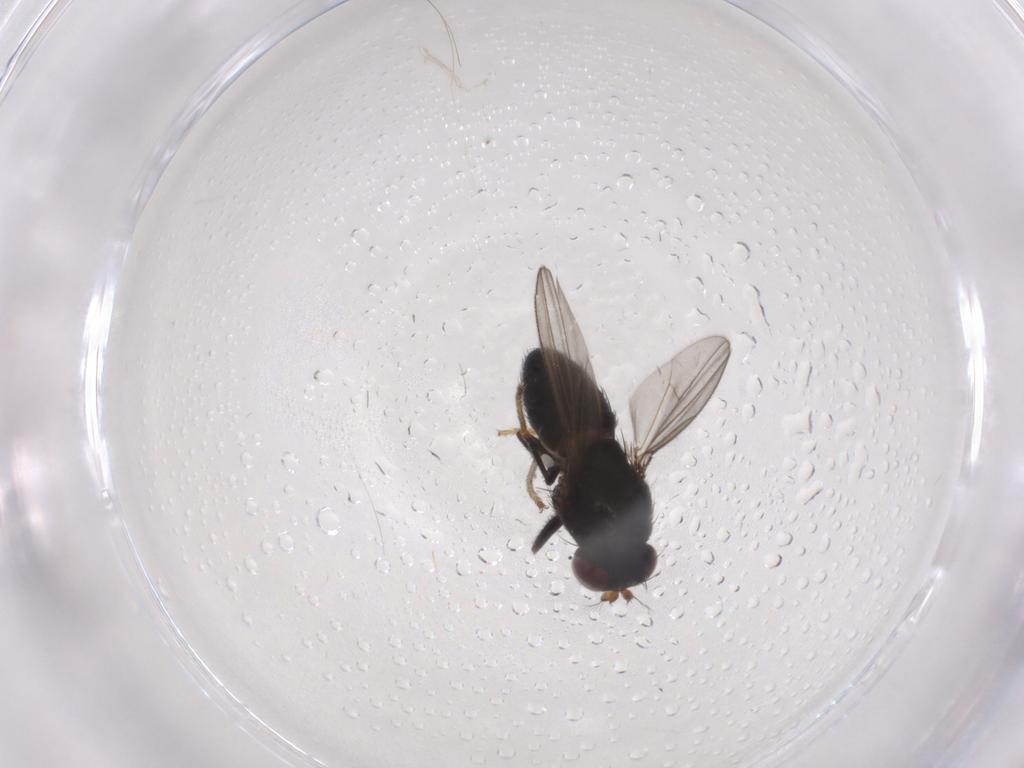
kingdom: Animalia
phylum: Arthropoda
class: Insecta
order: Diptera
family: Ephydridae
